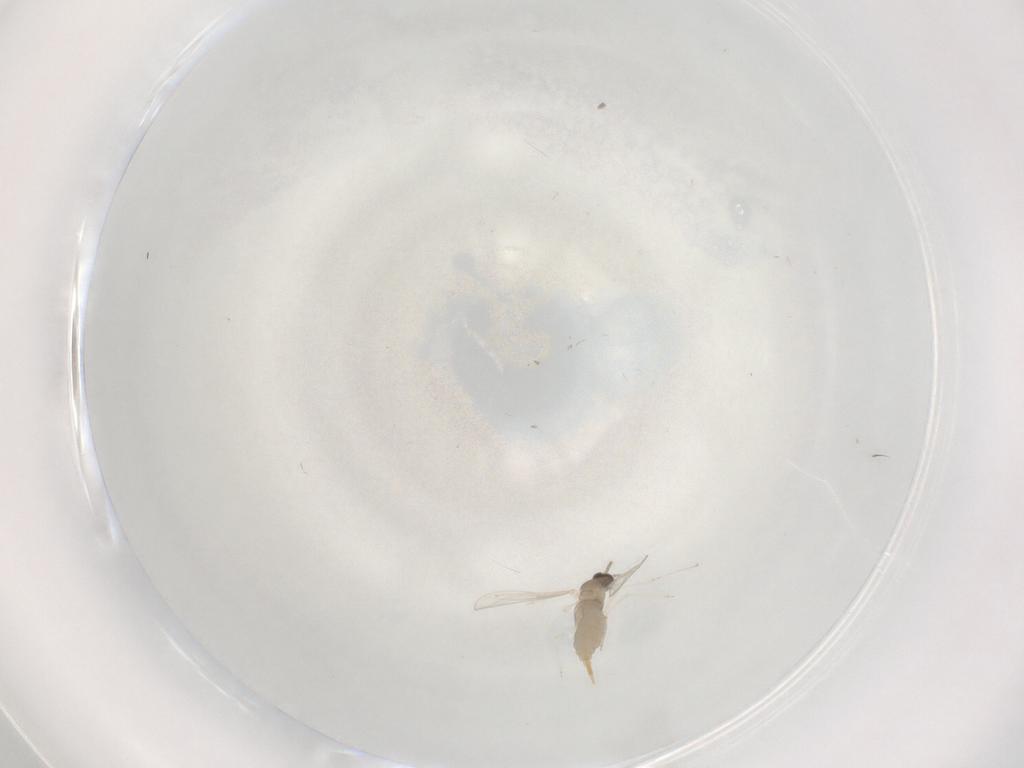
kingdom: Animalia
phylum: Arthropoda
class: Insecta
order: Diptera
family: Cecidomyiidae
